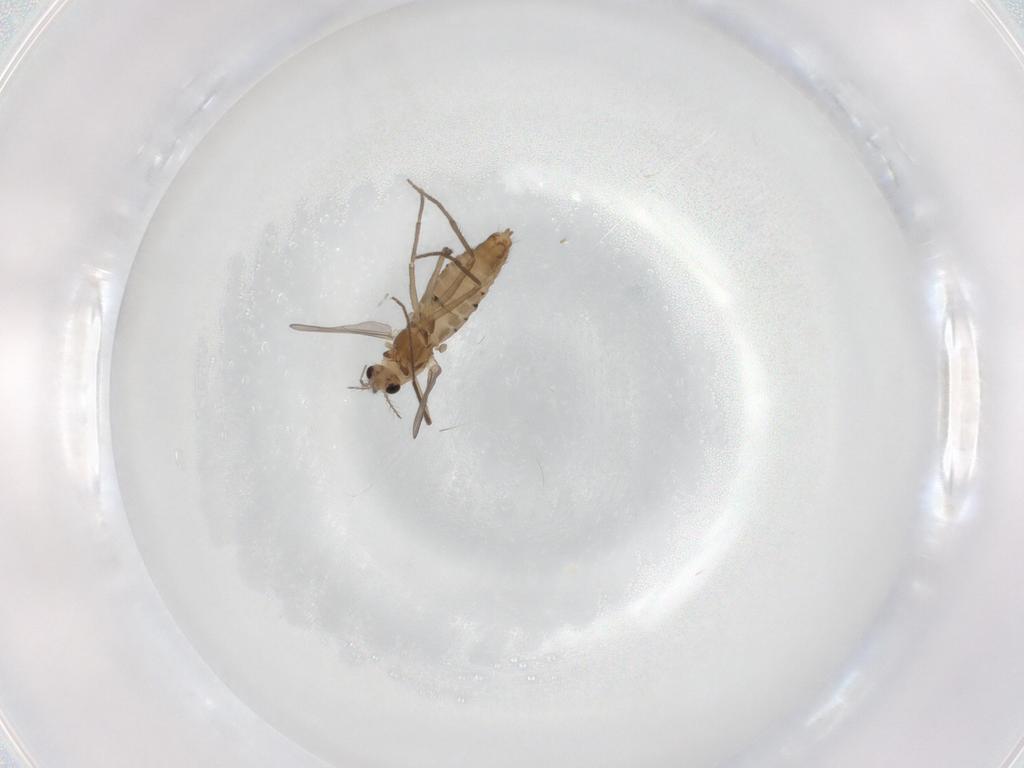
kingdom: Animalia
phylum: Arthropoda
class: Insecta
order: Diptera
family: Chironomidae
